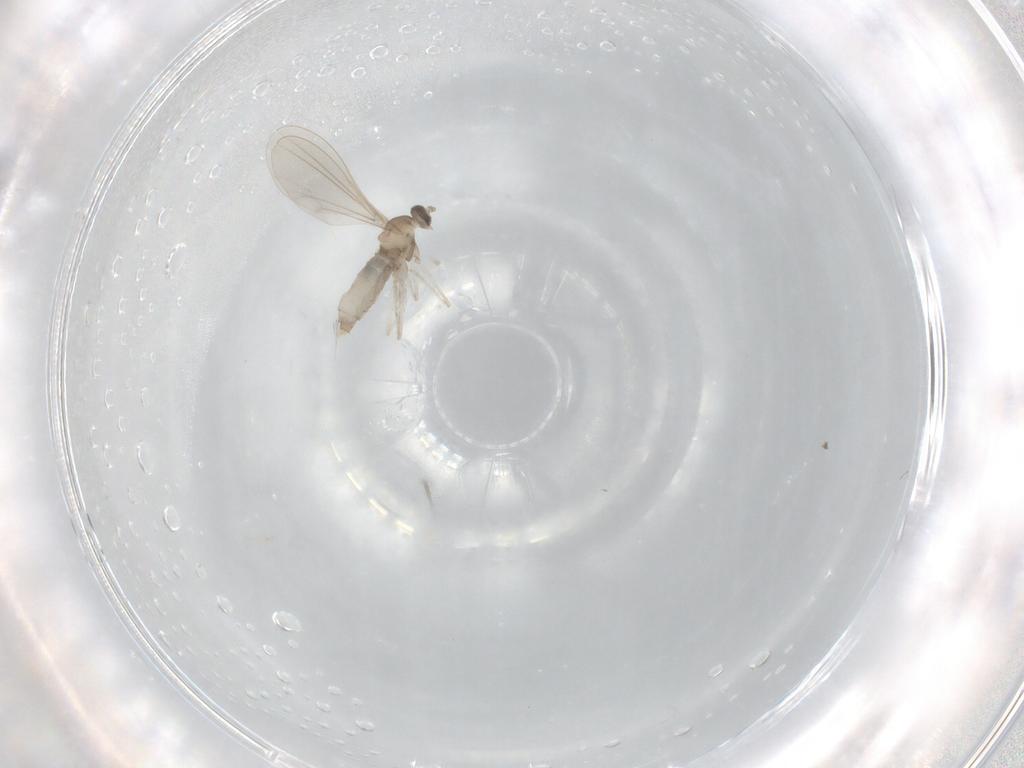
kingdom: Animalia
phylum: Arthropoda
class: Insecta
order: Diptera
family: Cecidomyiidae
